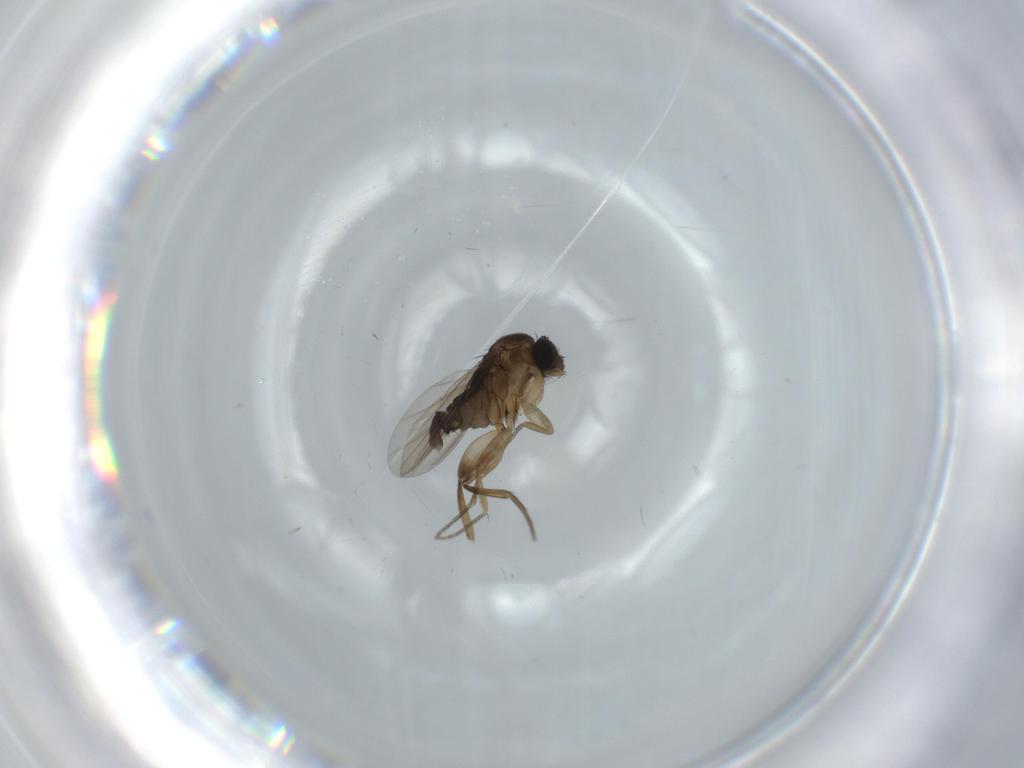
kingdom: Animalia
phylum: Arthropoda
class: Insecta
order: Diptera
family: Phoridae
